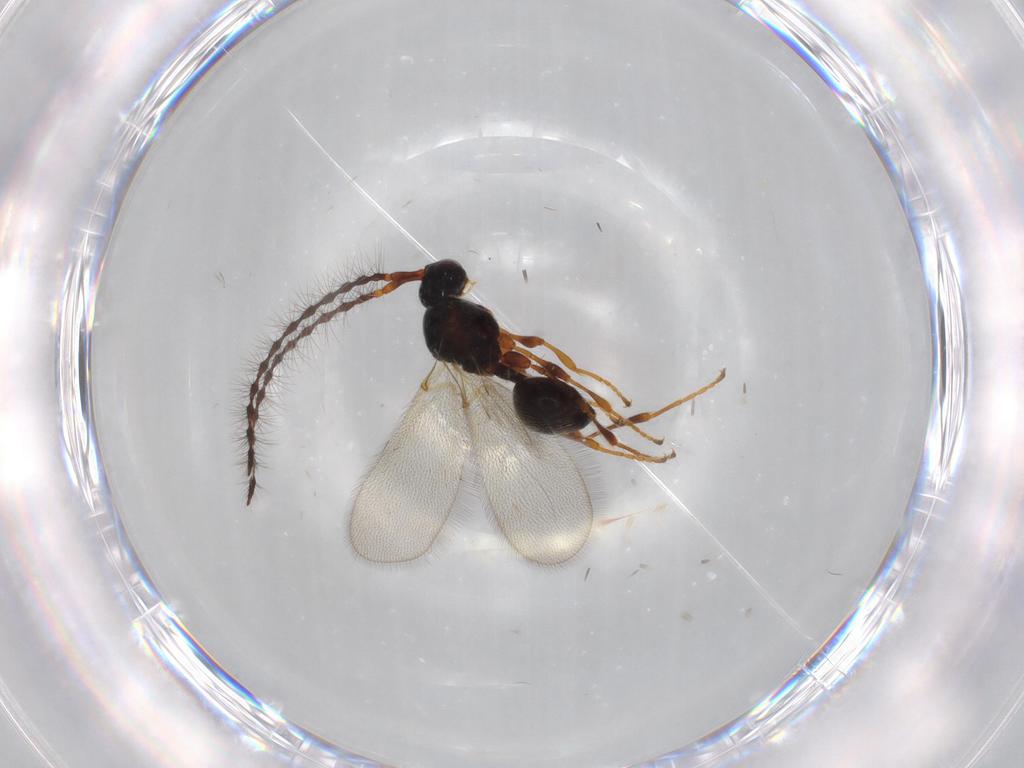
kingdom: Animalia
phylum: Arthropoda
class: Insecta
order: Hymenoptera
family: Diapriidae
